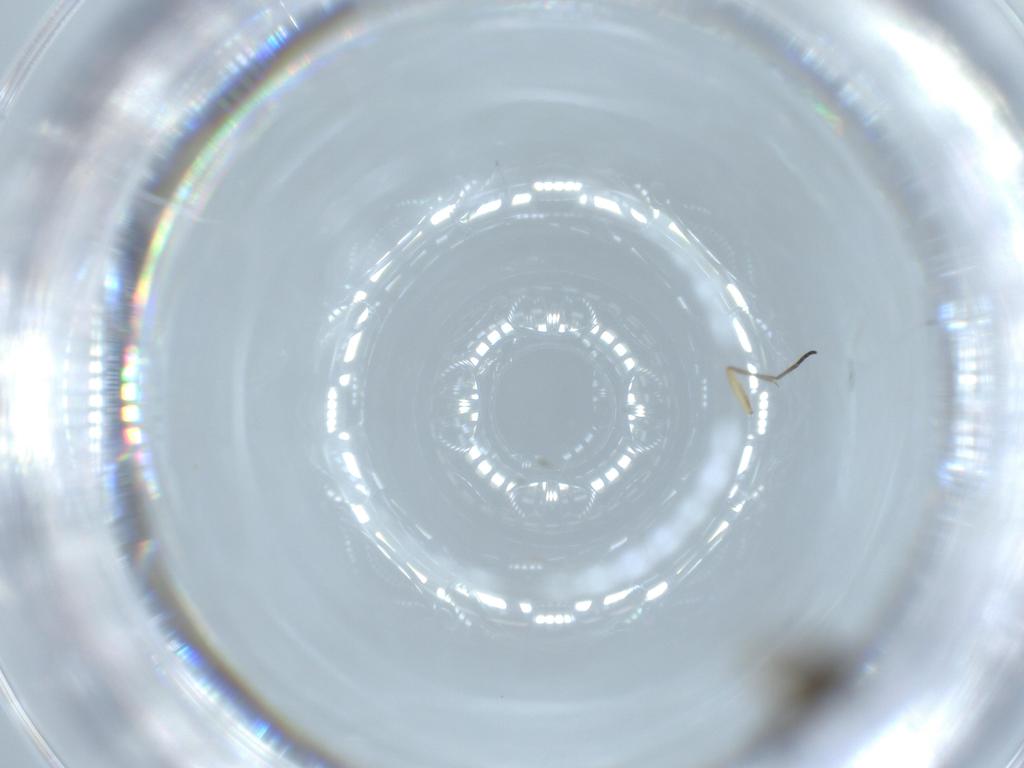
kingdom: Animalia
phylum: Arthropoda
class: Insecta
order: Diptera
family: Sciaridae
